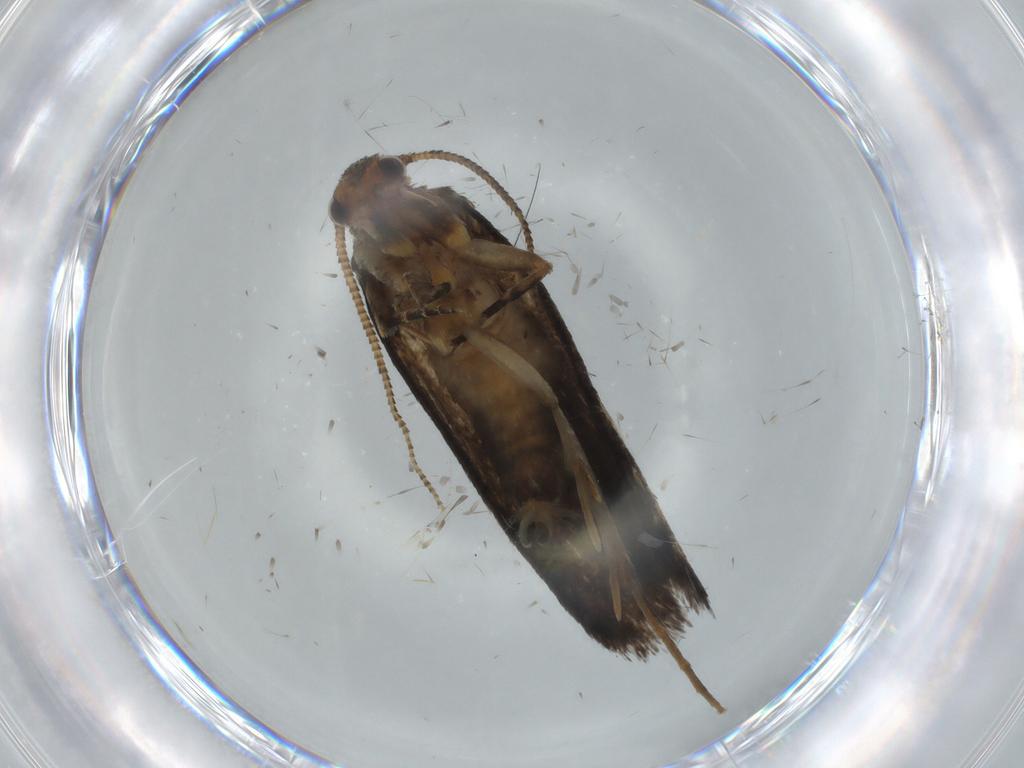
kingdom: Animalia
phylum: Arthropoda
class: Insecta
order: Lepidoptera
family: Tineidae
